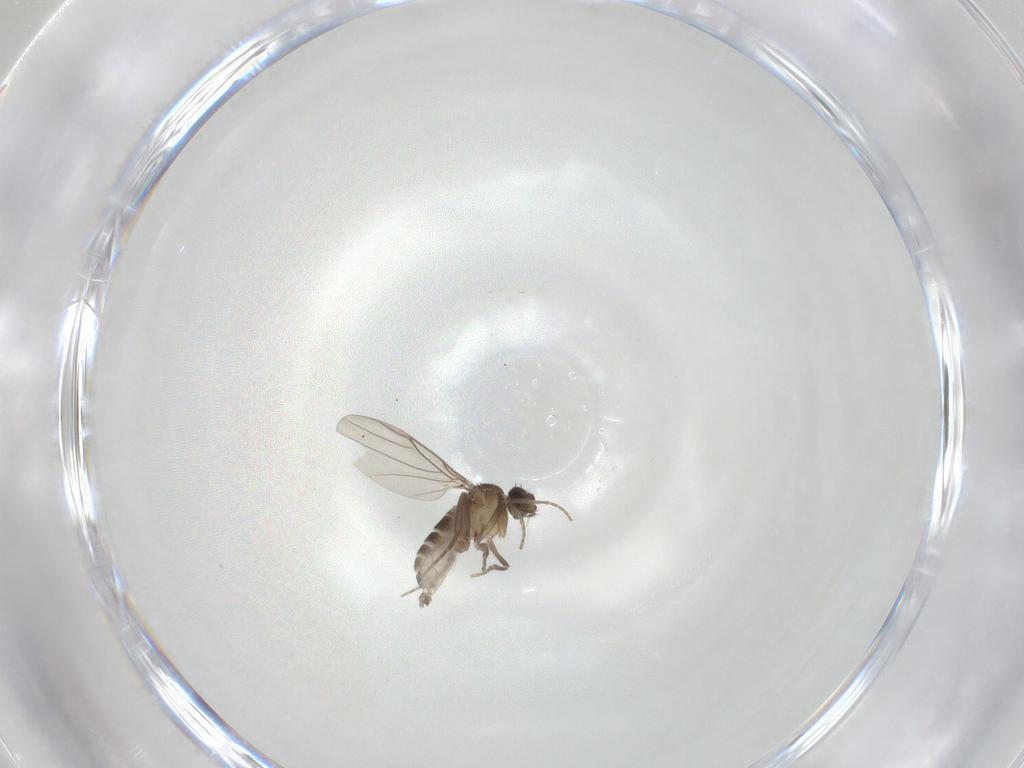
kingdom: Animalia
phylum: Arthropoda
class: Insecta
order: Diptera
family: Phoridae
